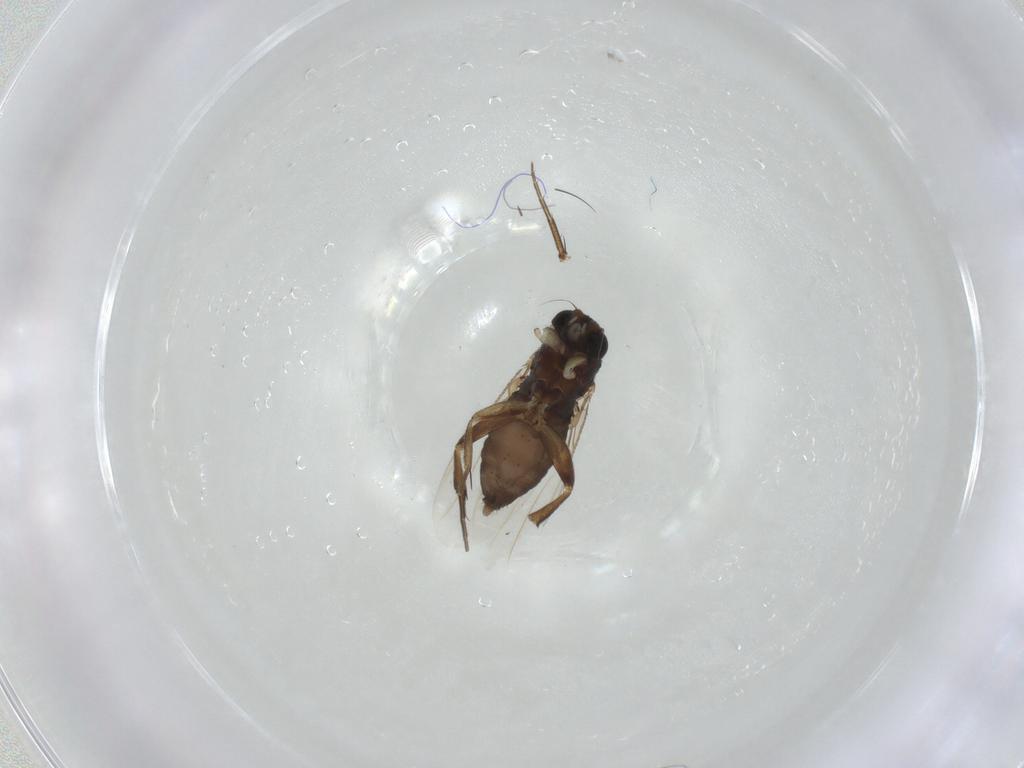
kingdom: Animalia
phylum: Arthropoda
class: Insecta
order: Diptera
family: Phoridae
